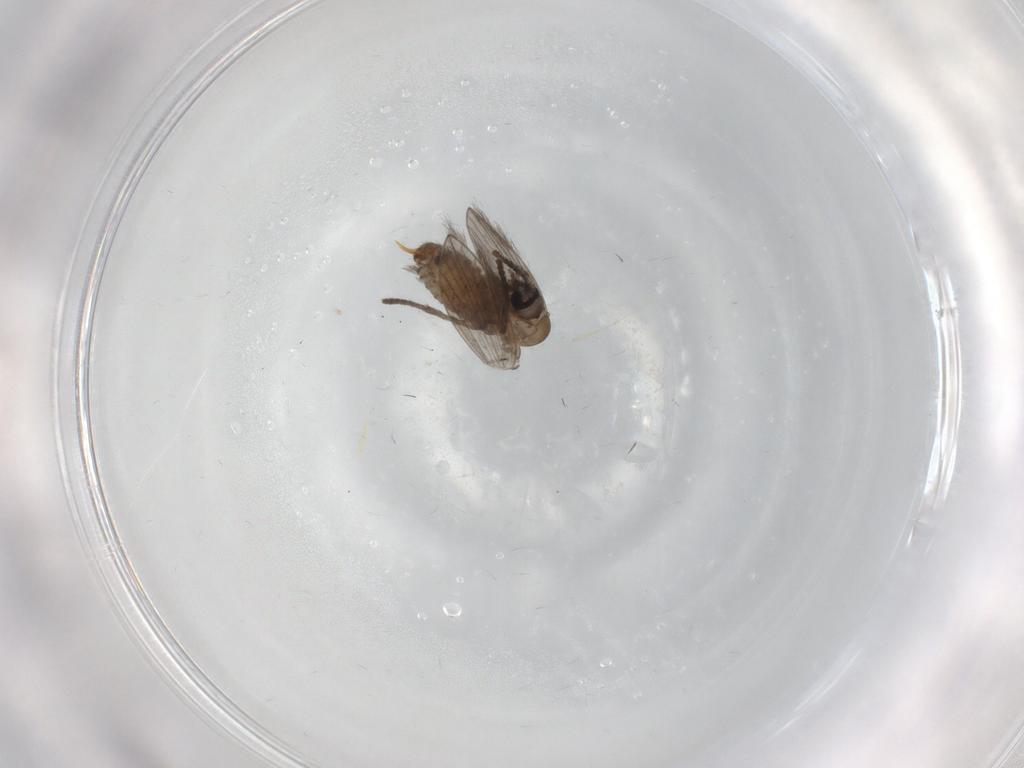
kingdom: Animalia
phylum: Arthropoda
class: Insecta
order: Diptera
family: Psychodidae
